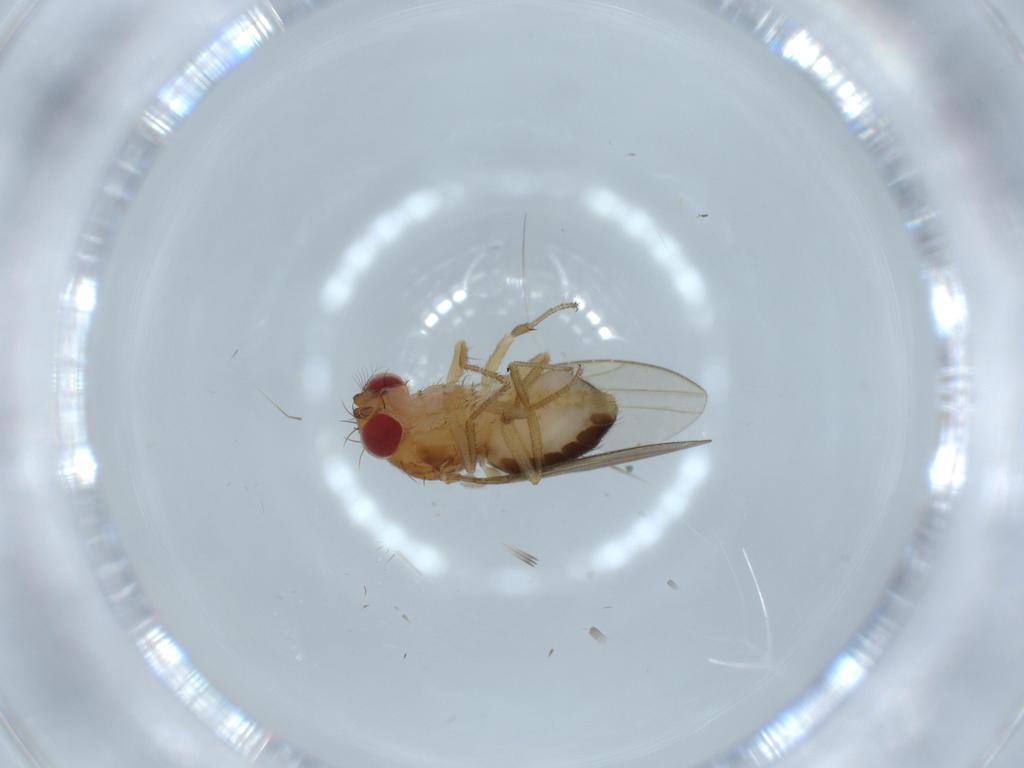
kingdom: Animalia
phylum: Arthropoda
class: Insecta
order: Diptera
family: Drosophilidae
